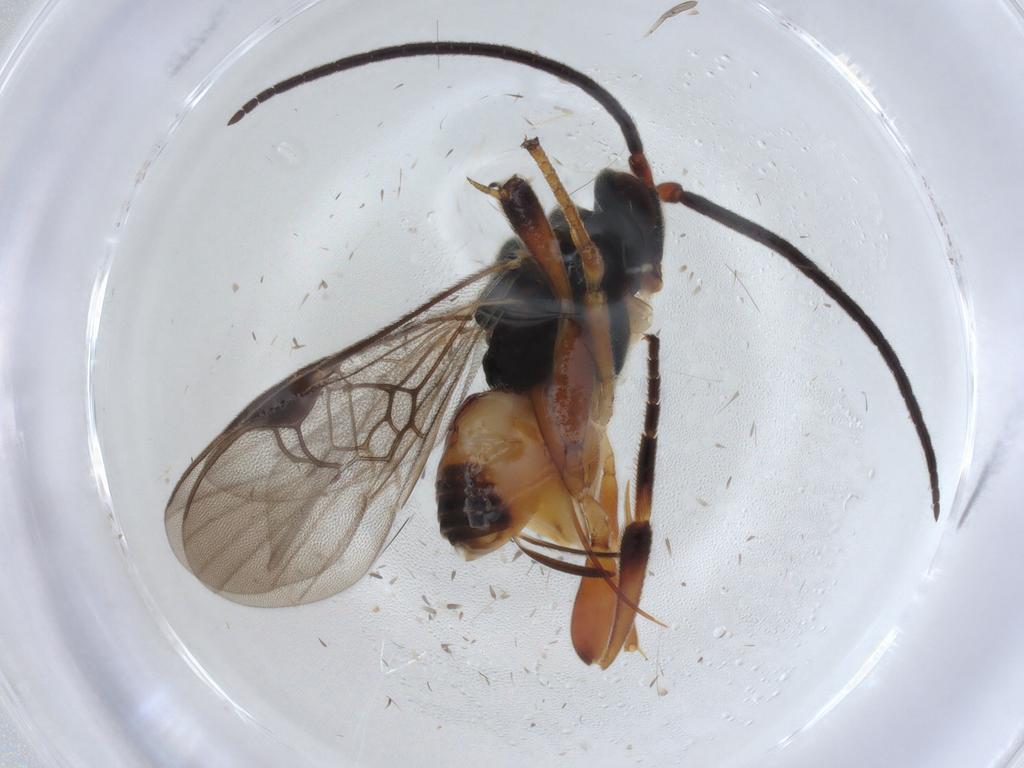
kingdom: Animalia
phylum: Arthropoda
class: Insecta
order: Hymenoptera
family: Braconidae
